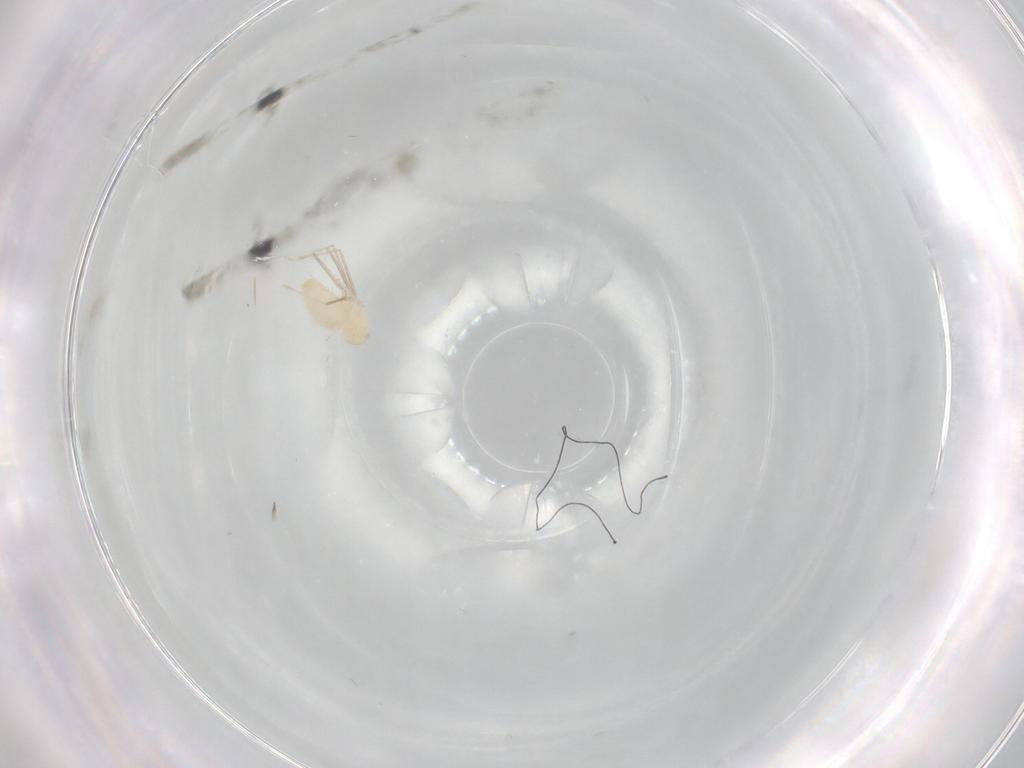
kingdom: Animalia
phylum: Arthropoda
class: Insecta
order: Diptera
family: Cecidomyiidae
